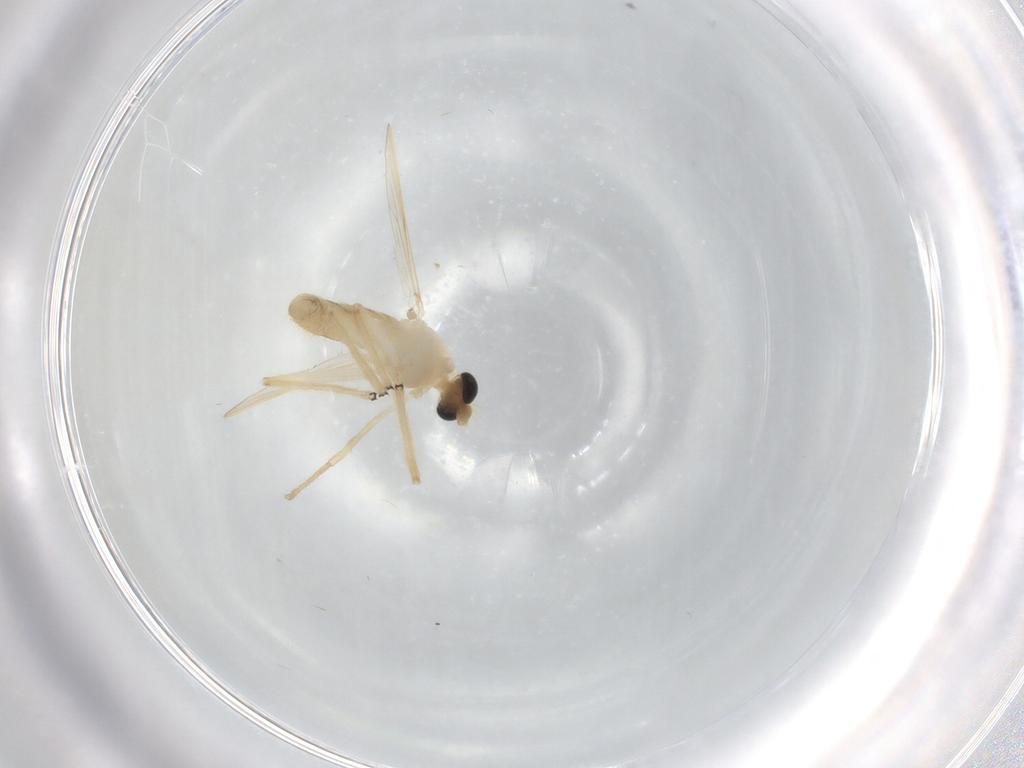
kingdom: Animalia
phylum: Arthropoda
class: Insecta
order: Diptera
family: Chironomidae
